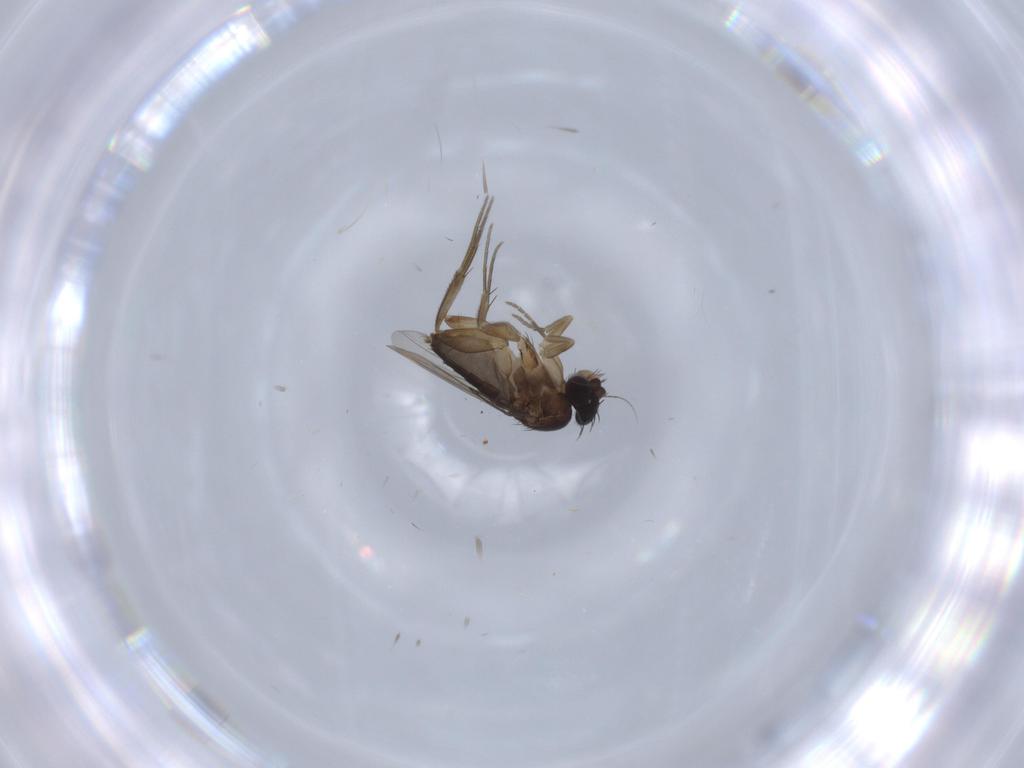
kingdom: Animalia
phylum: Arthropoda
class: Insecta
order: Diptera
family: Phoridae
